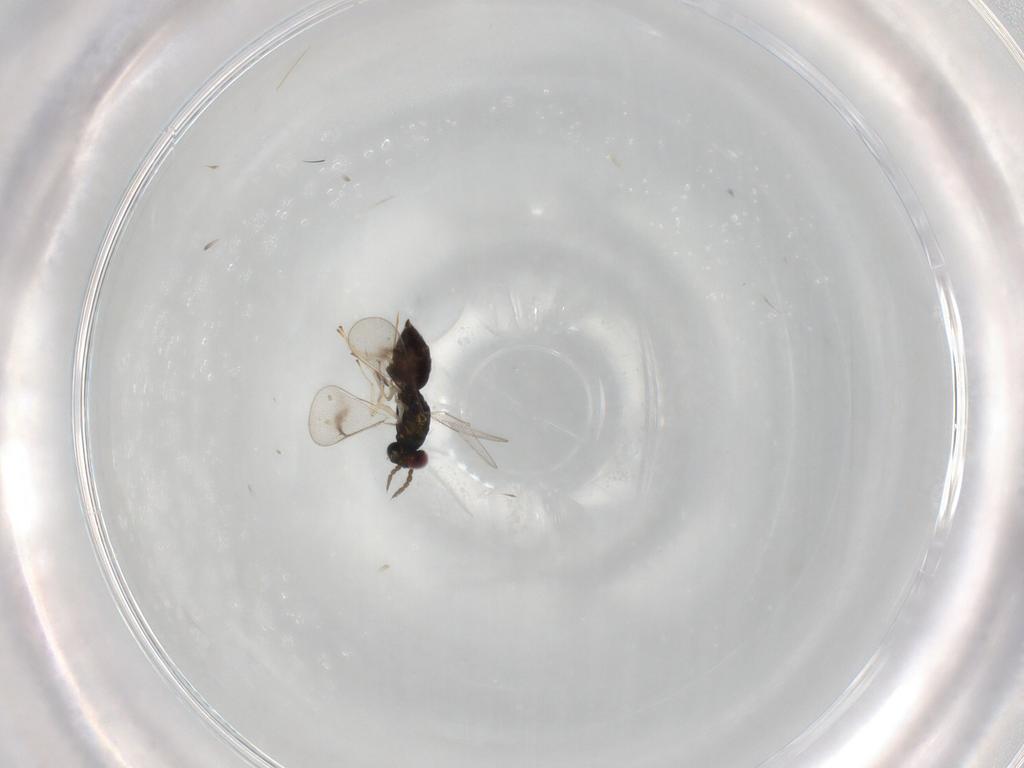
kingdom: Animalia
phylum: Arthropoda
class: Insecta
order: Hymenoptera
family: Eulophidae
